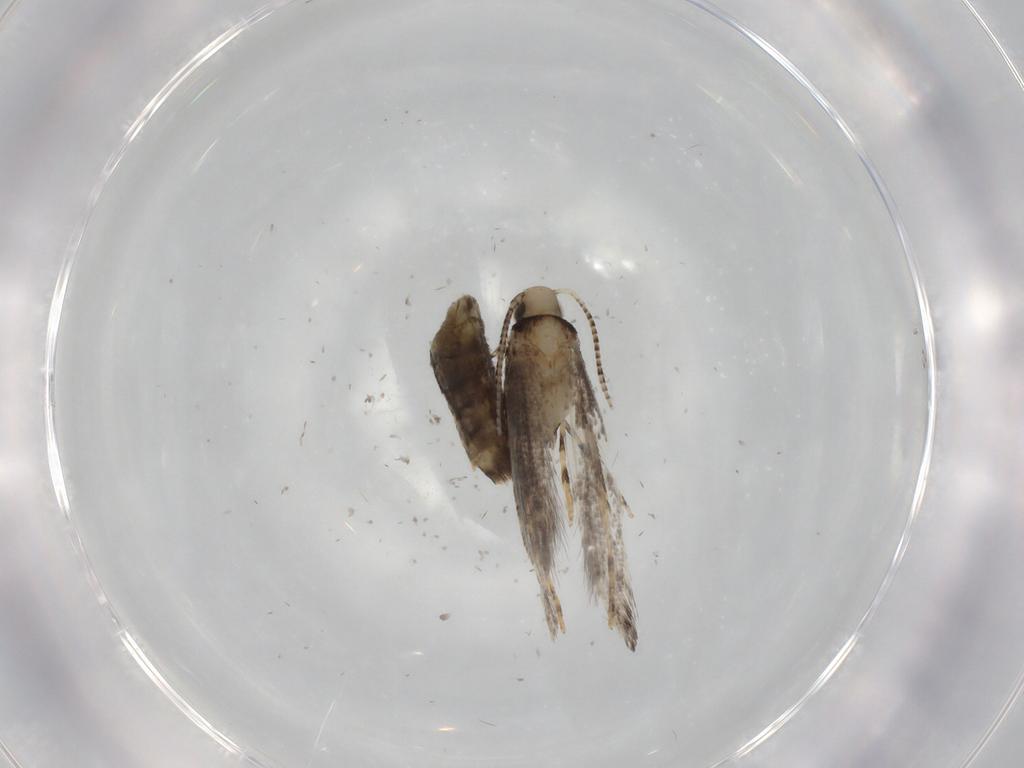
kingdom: Animalia
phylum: Arthropoda
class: Insecta
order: Lepidoptera
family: Gracillariidae
